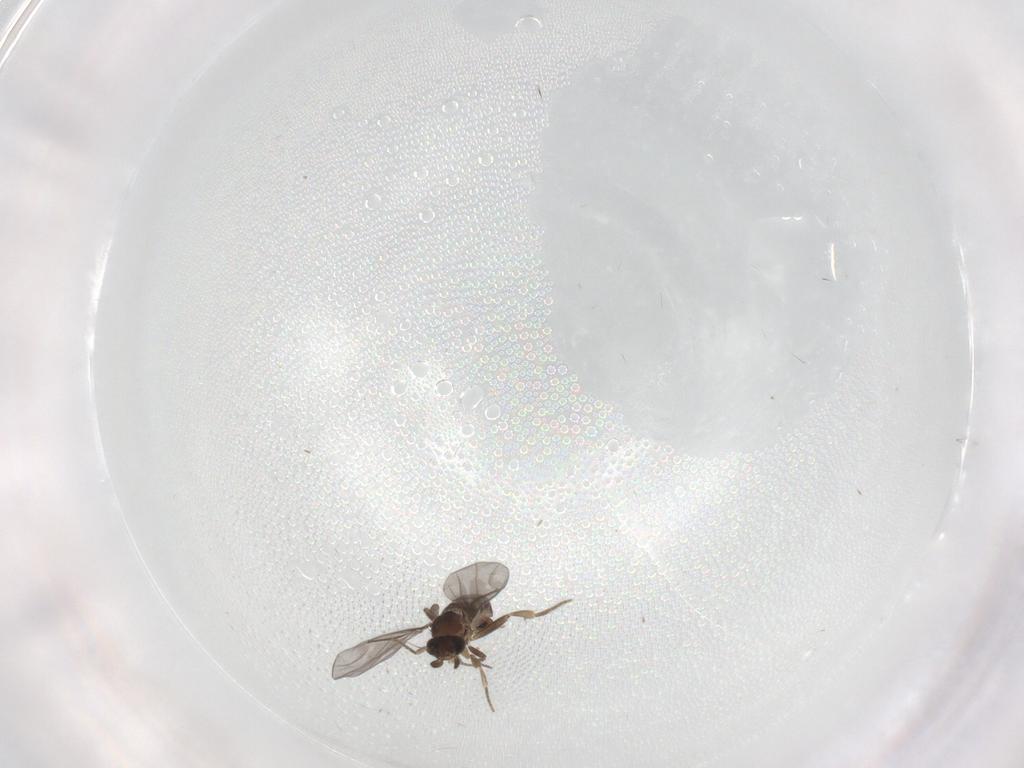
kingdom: Animalia
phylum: Arthropoda
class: Insecta
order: Diptera
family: Chironomidae
